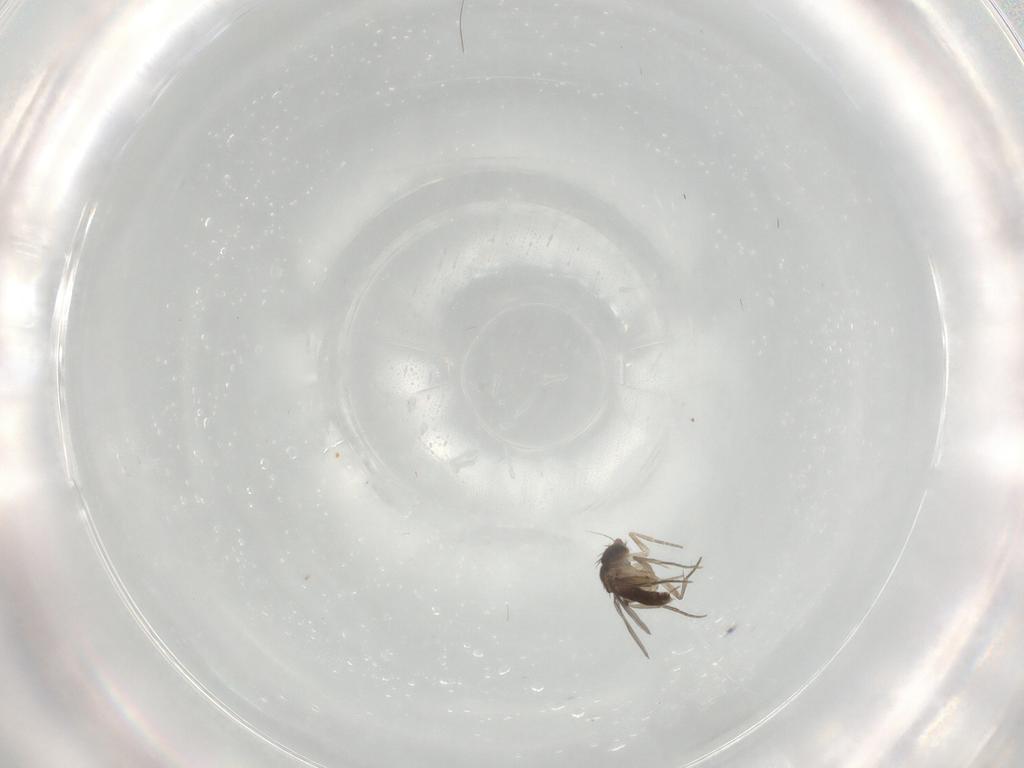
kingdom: Animalia
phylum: Arthropoda
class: Insecta
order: Diptera
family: Phoridae
